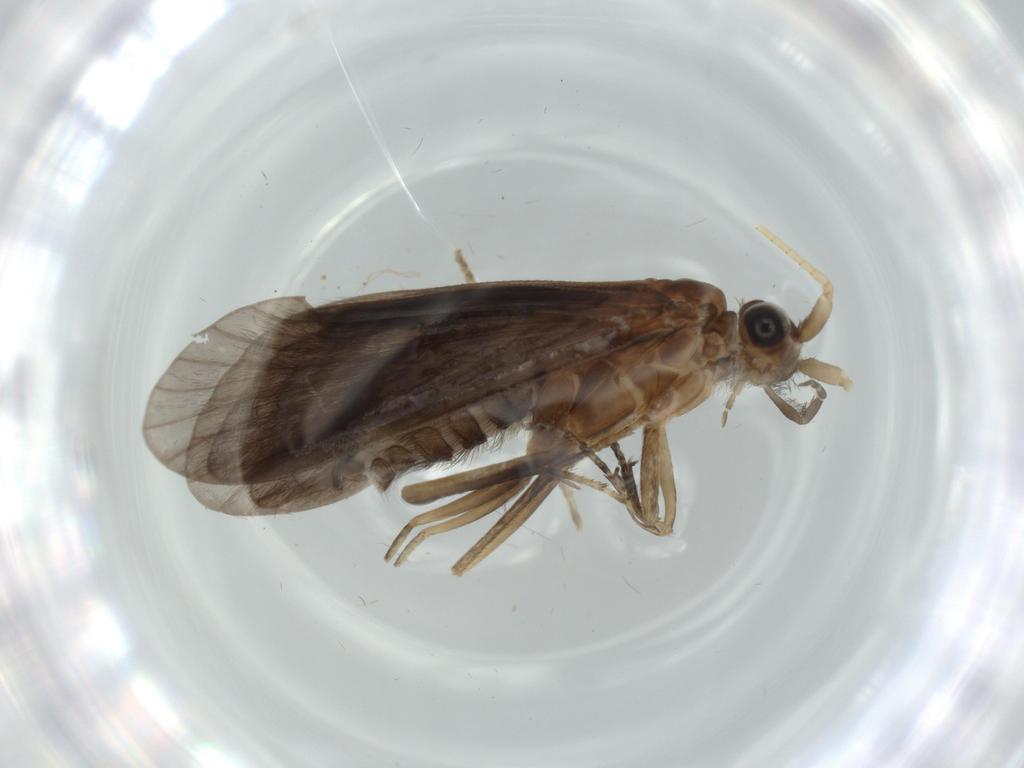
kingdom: Animalia
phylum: Arthropoda
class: Insecta
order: Trichoptera
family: Helicopsychidae
